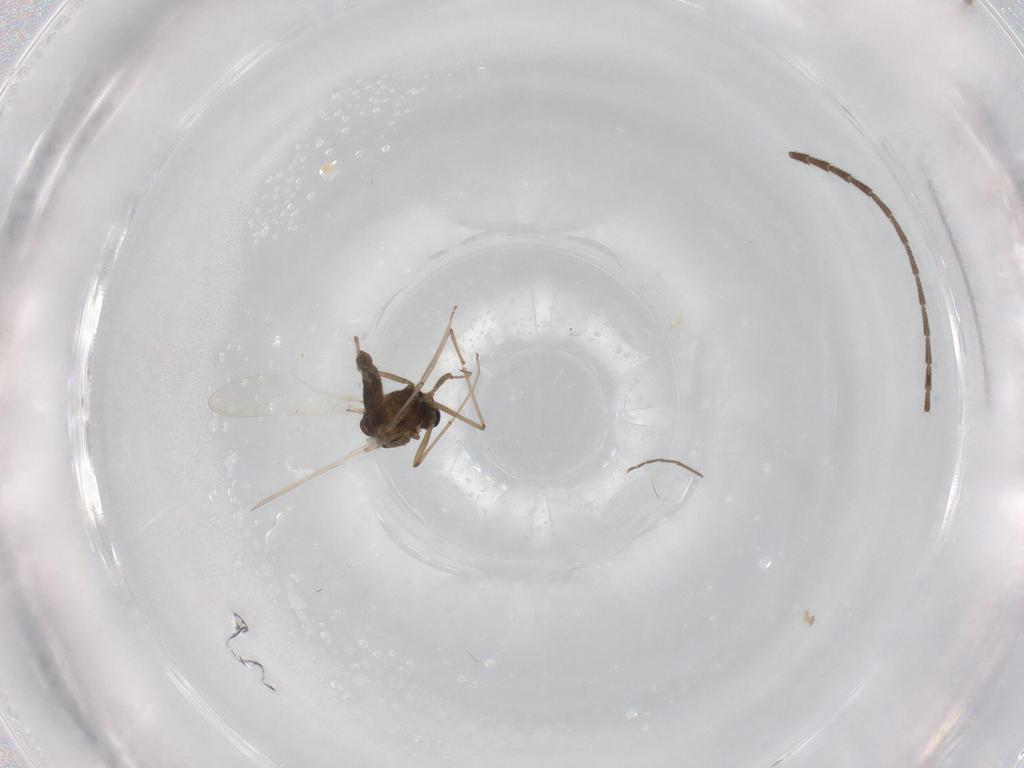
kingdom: Animalia
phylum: Arthropoda
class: Insecta
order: Diptera
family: Chironomidae
